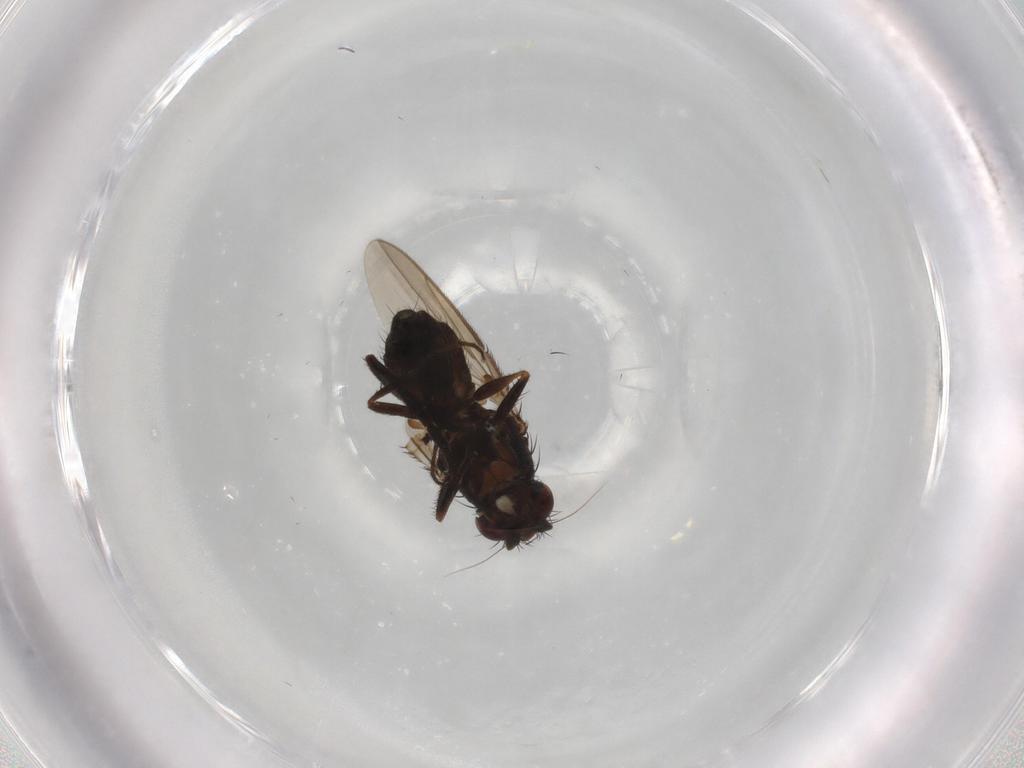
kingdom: Animalia
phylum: Arthropoda
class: Insecta
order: Diptera
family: Sphaeroceridae
